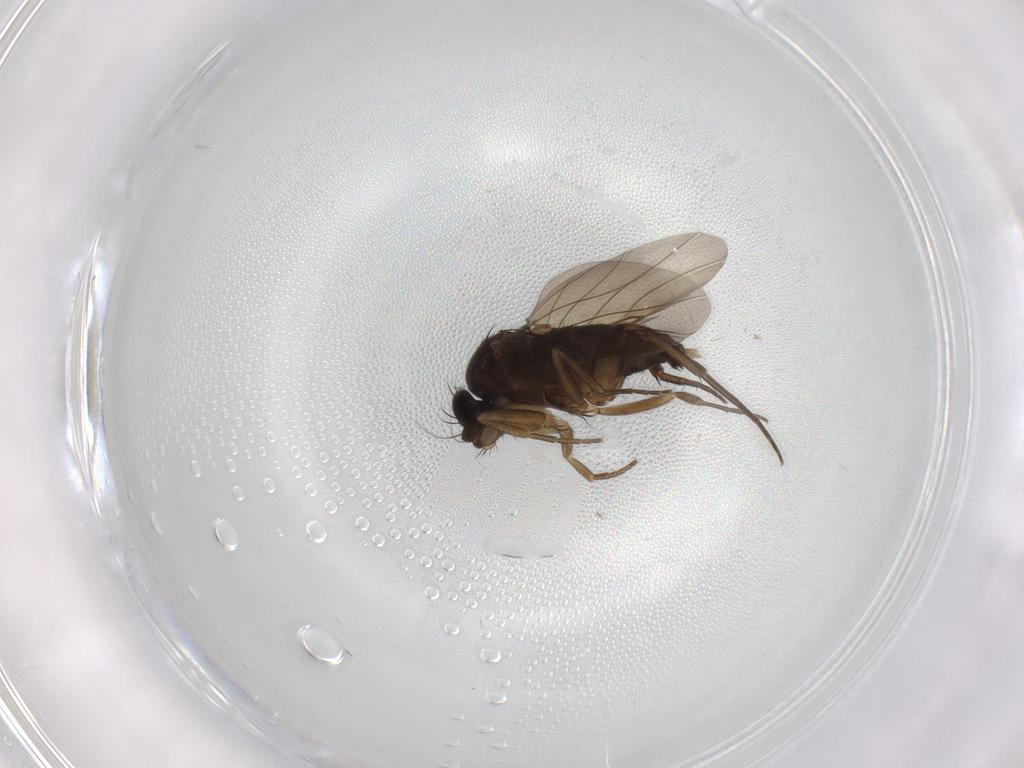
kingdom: Animalia
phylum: Arthropoda
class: Insecta
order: Diptera
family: Phoridae
